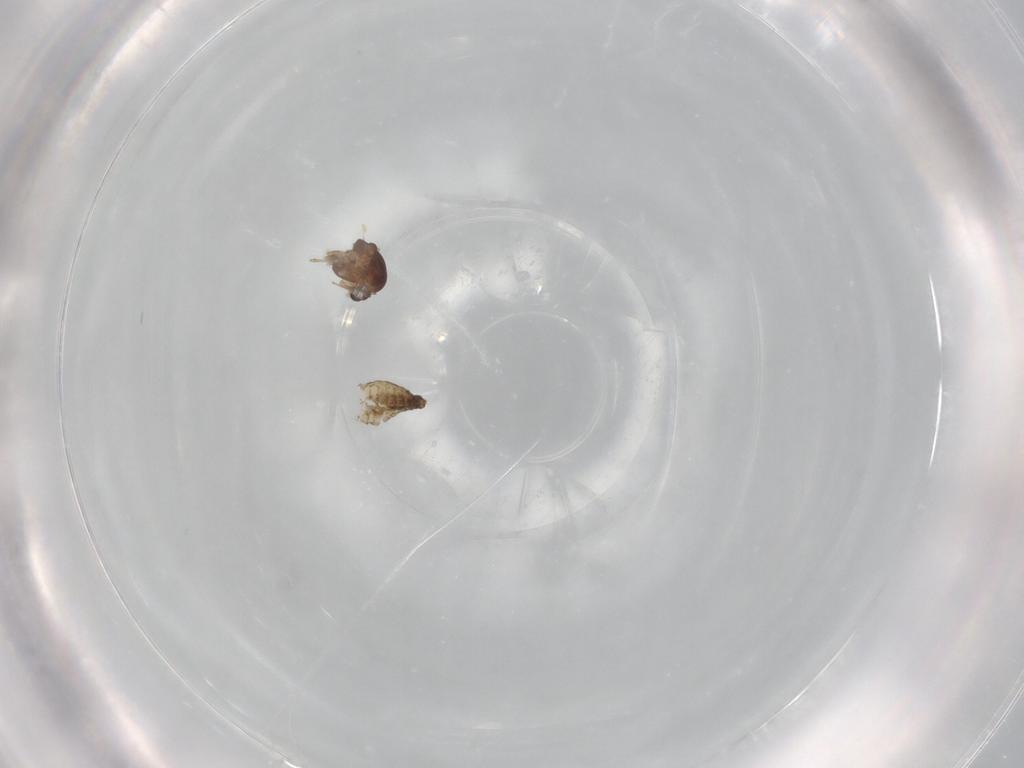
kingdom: Animalia
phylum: Arthropoda
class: Insecta
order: Diptera
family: Chironomidae
